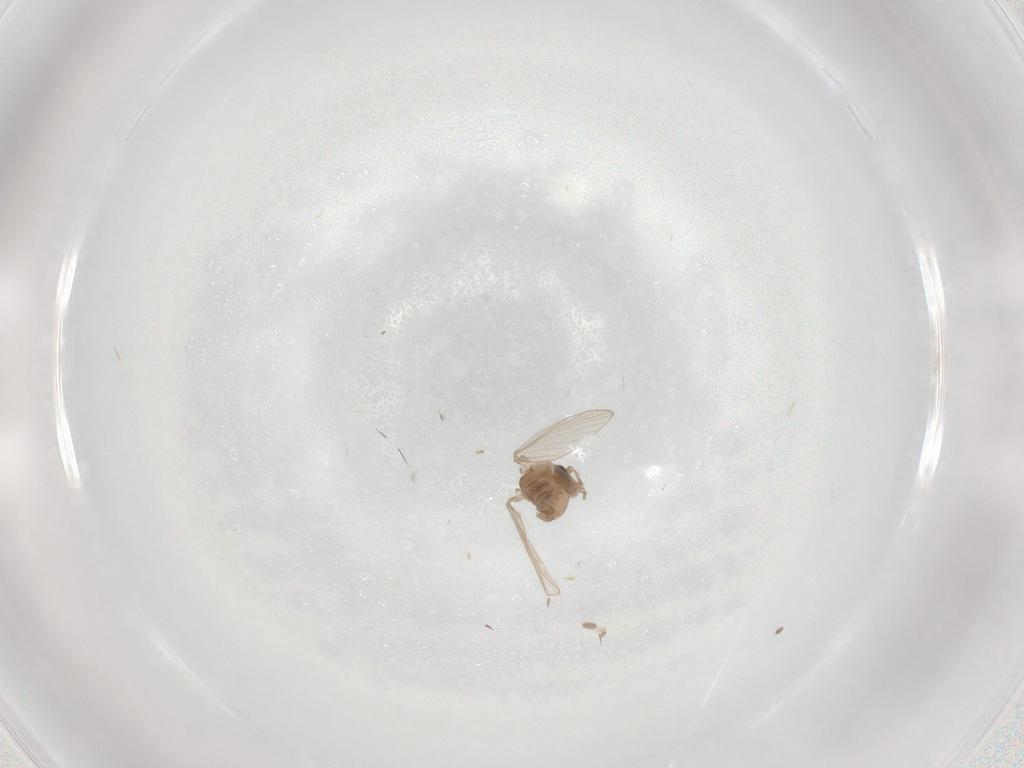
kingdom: Animalia
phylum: Arthropoda
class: Insecta
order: Diptera
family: Psychodidae
